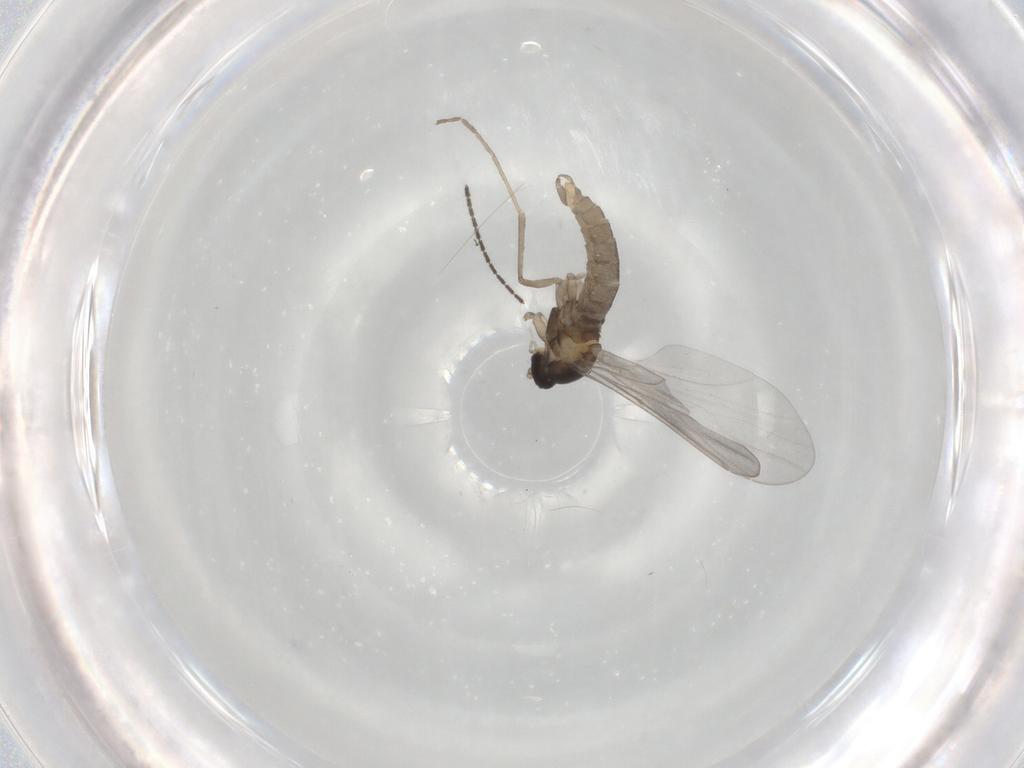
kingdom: Animalia
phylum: Arthropoda
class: Insecta
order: Diptera
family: Cecidomyiidae
